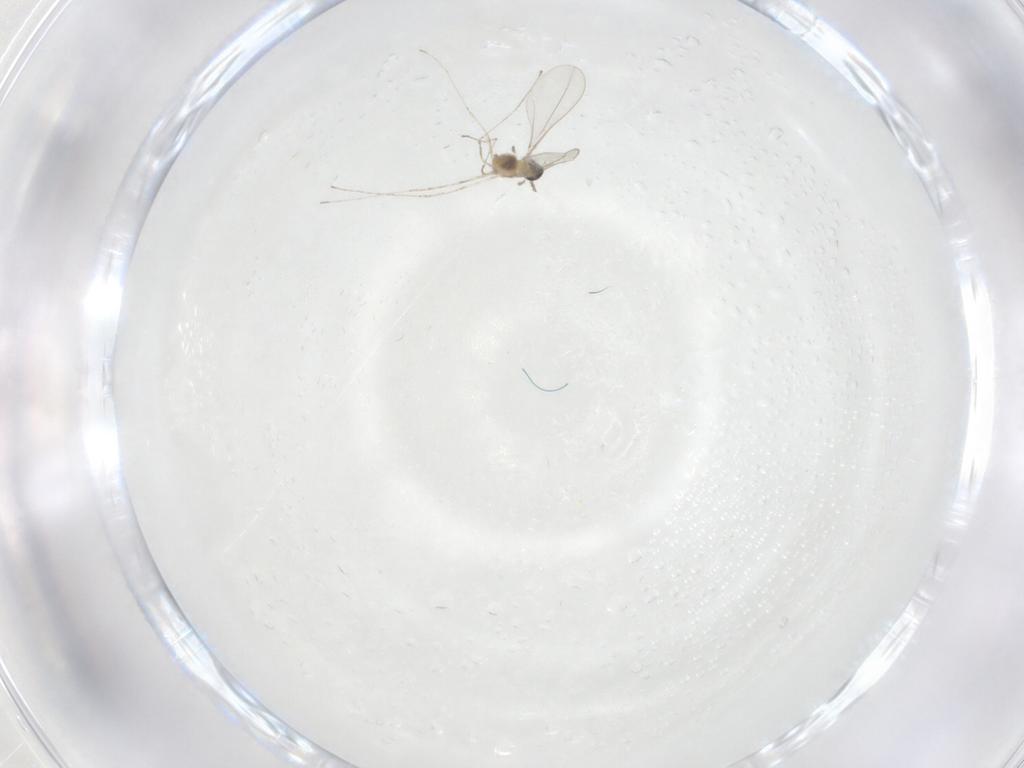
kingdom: Animalia
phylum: Arthropoda
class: Insecta
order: Diptera
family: Cecidomyiidae
